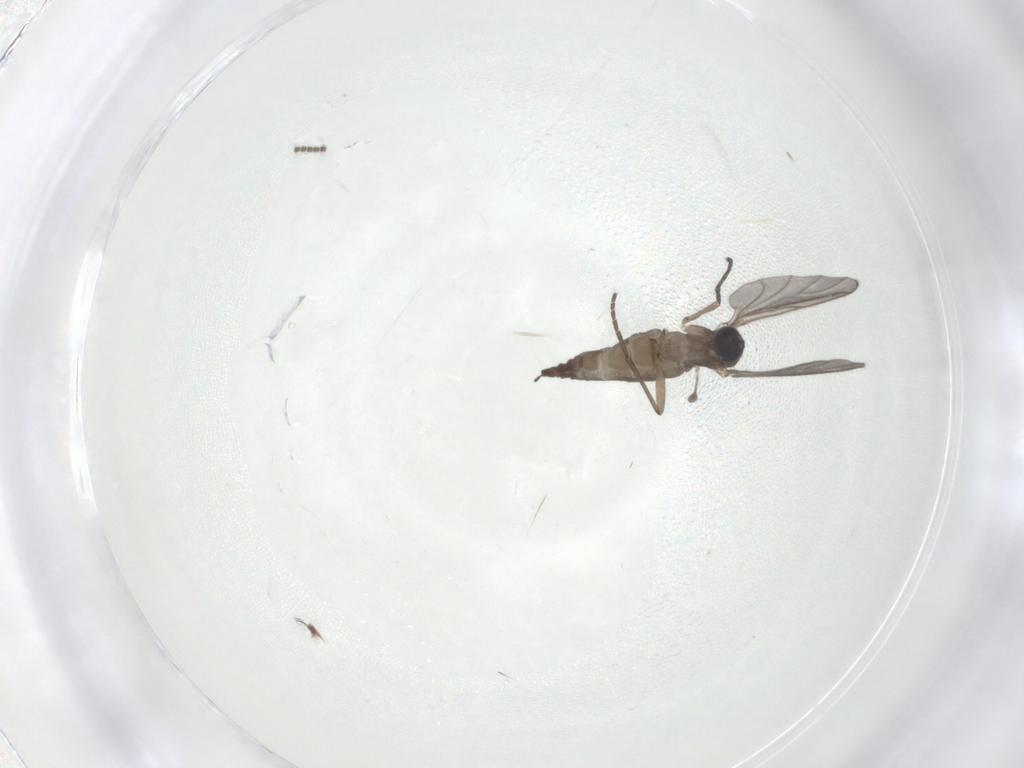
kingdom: Animalia
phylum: Arthropoda
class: Insecta
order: Diptera
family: Sciaridae
